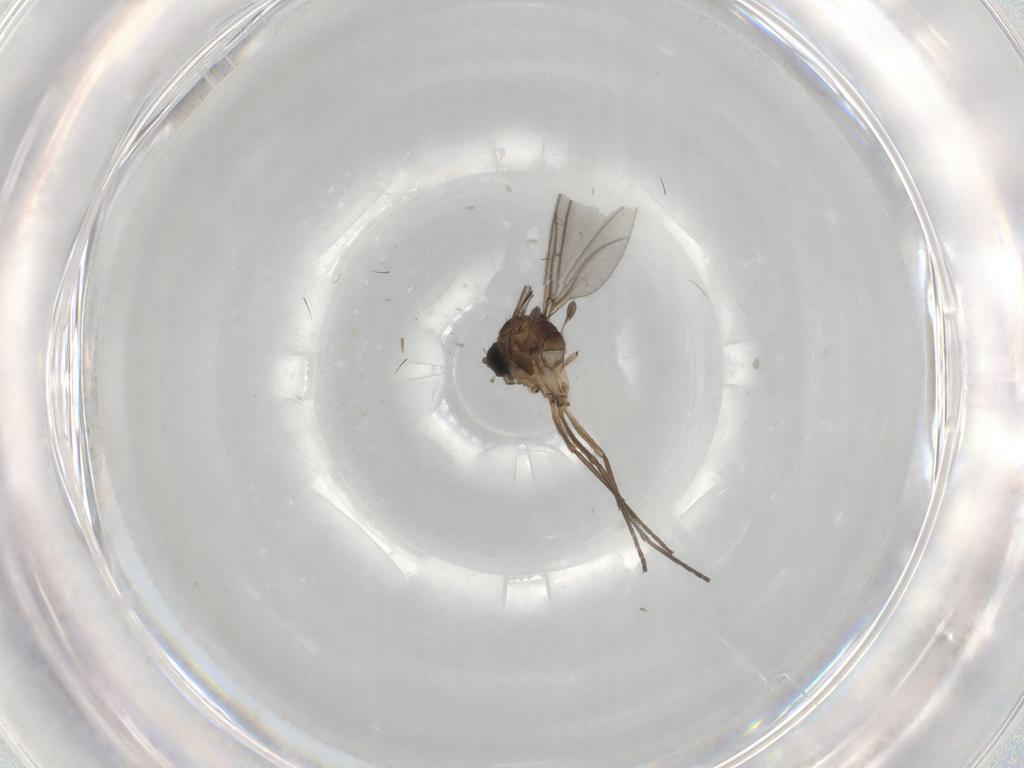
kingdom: Animalia
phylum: Arthropoda
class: Insecta
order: Diptera
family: Sciaridae
